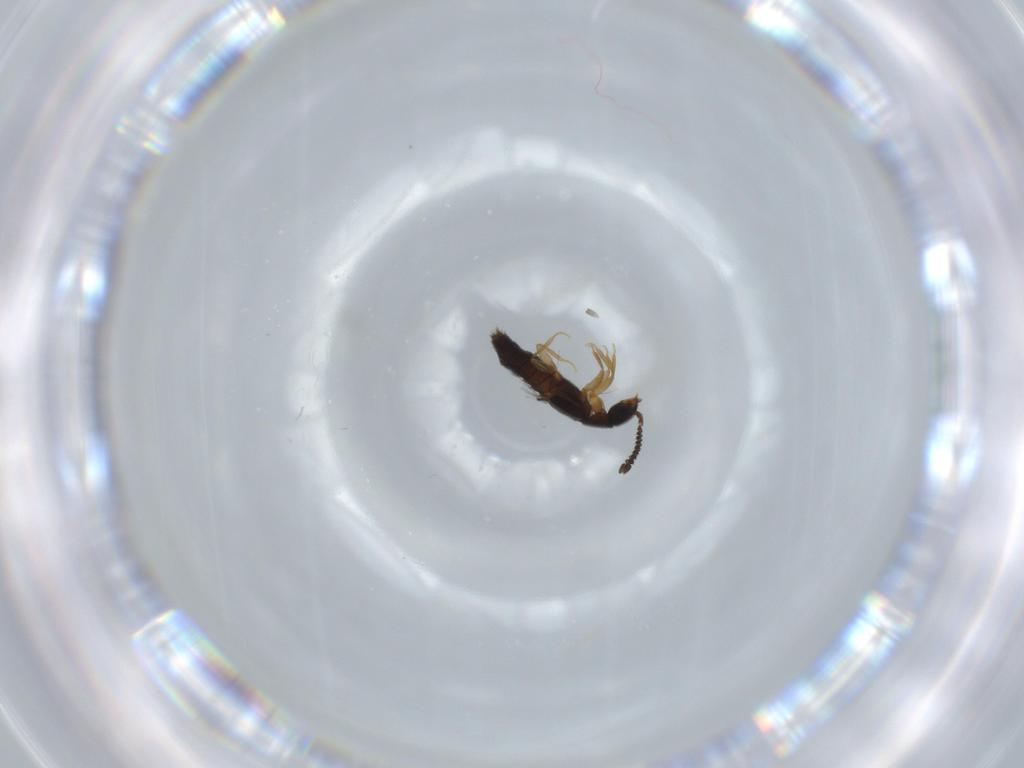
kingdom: Animalia
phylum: Arthropoda
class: Insecta
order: Coleoptera
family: Staphylinidae
